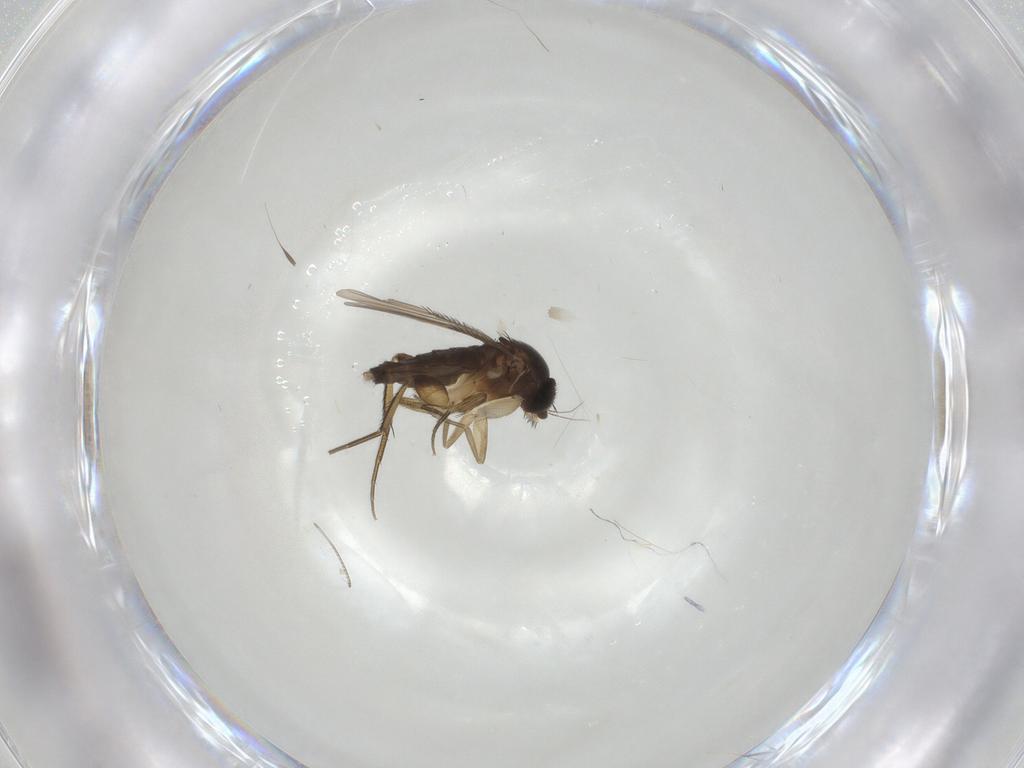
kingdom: Animalia
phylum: Arthropoda
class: Insecta
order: Diptera
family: Phoridae
